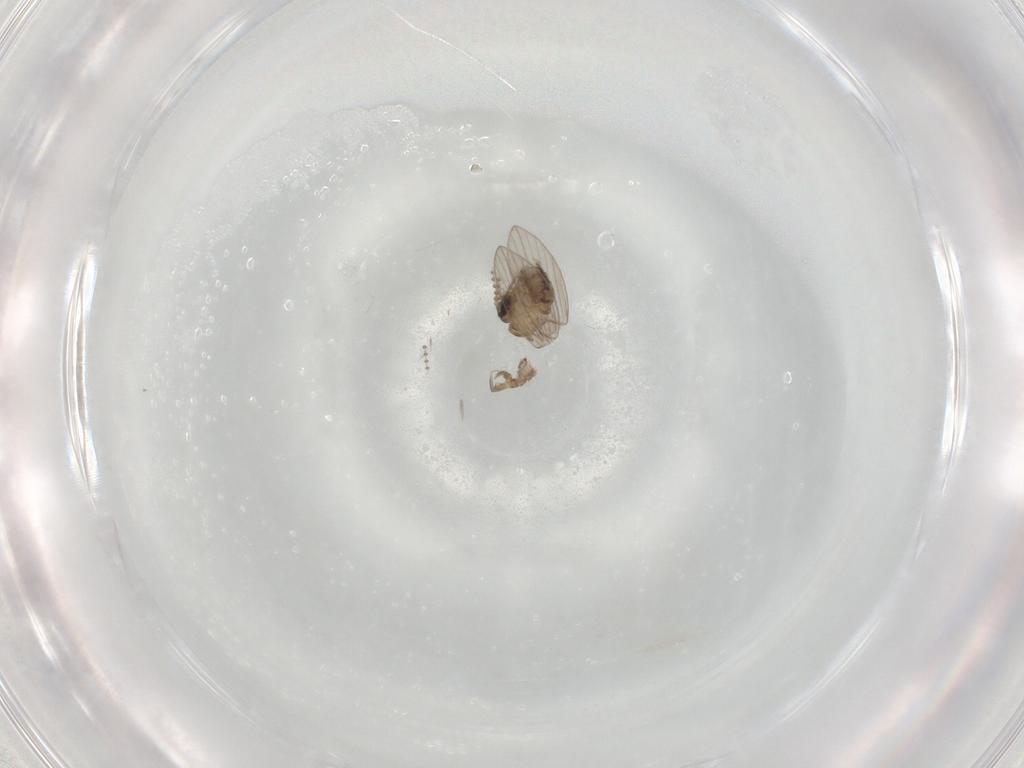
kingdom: Animalia
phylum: Arthropoda
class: Insecta
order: Diptera
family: Psychodidae
